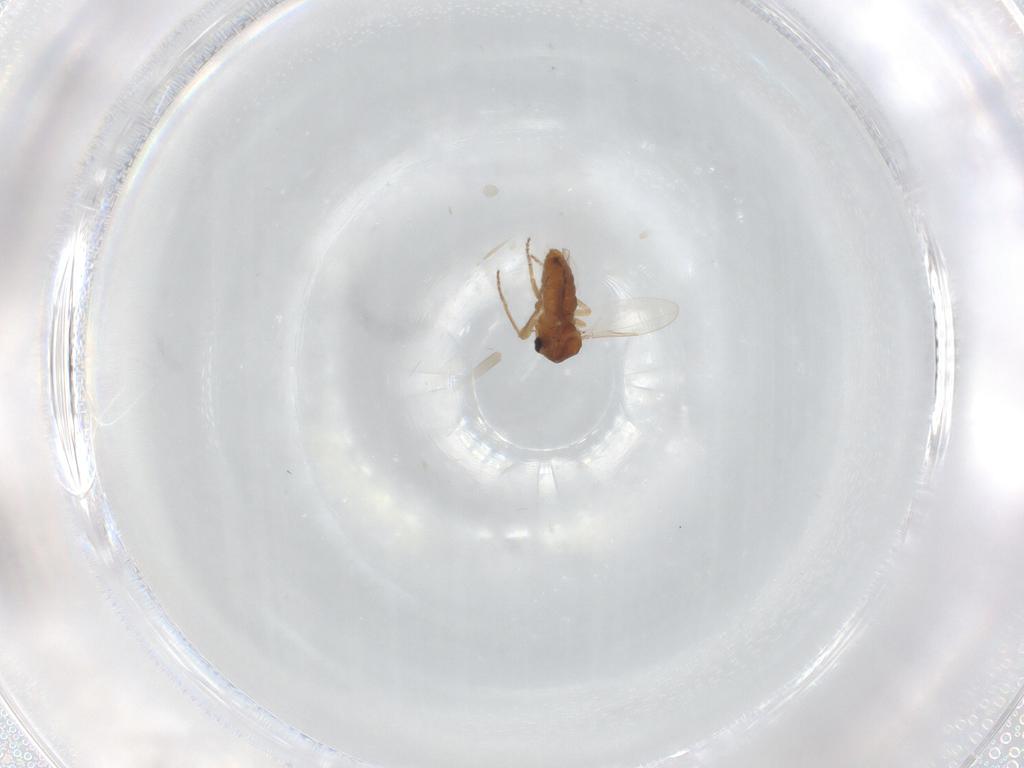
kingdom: Animalia
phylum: Arthropoda
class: Insecta
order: Diptera
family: Ceratopogonidae
